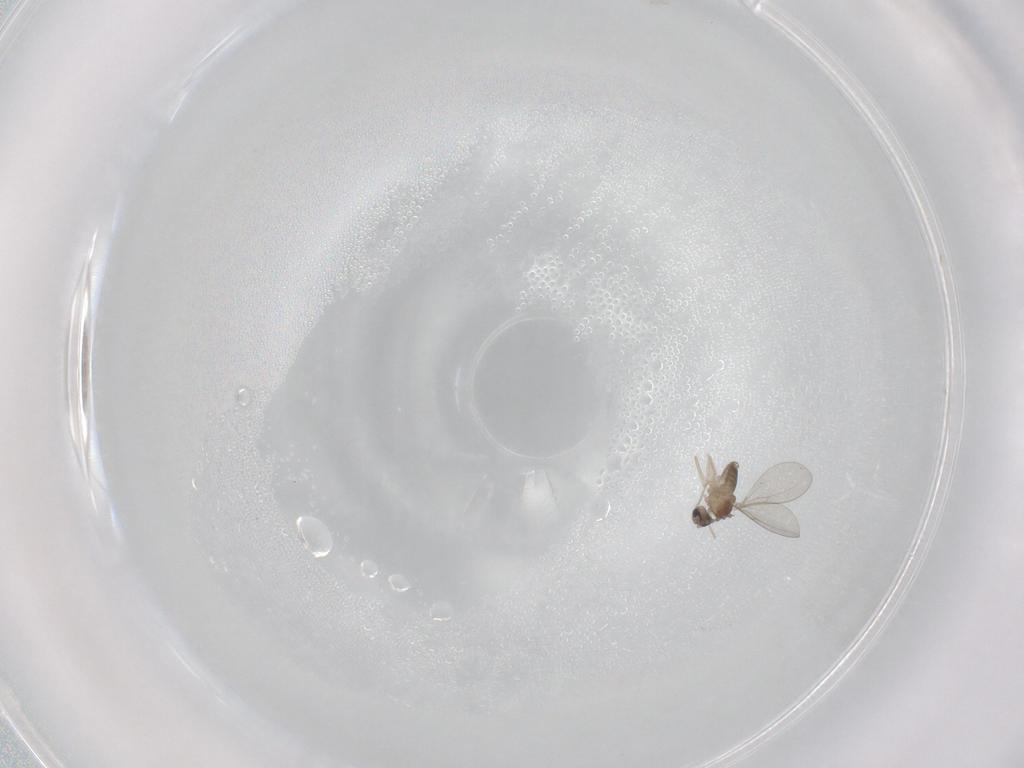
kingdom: Animalia
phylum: Arthropoda
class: Insecta
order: Diptera
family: Cecidomyiidae
